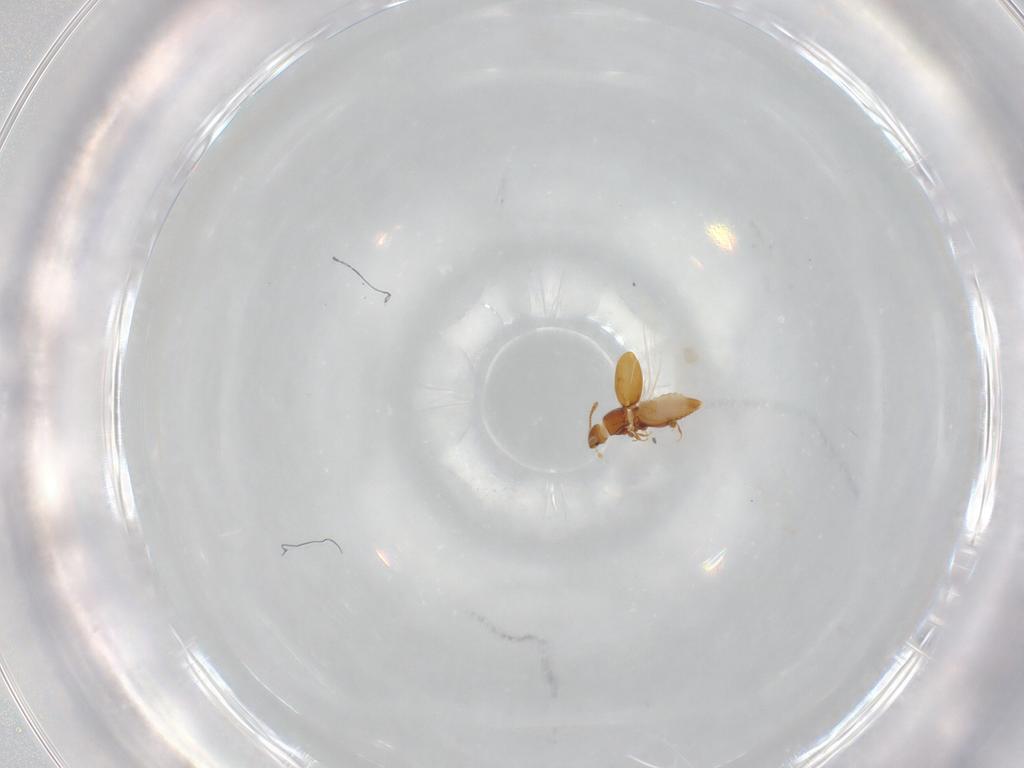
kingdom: Animalia
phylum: Arthropoda
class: Insecta
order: Coleoptera
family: Staphylinidae
